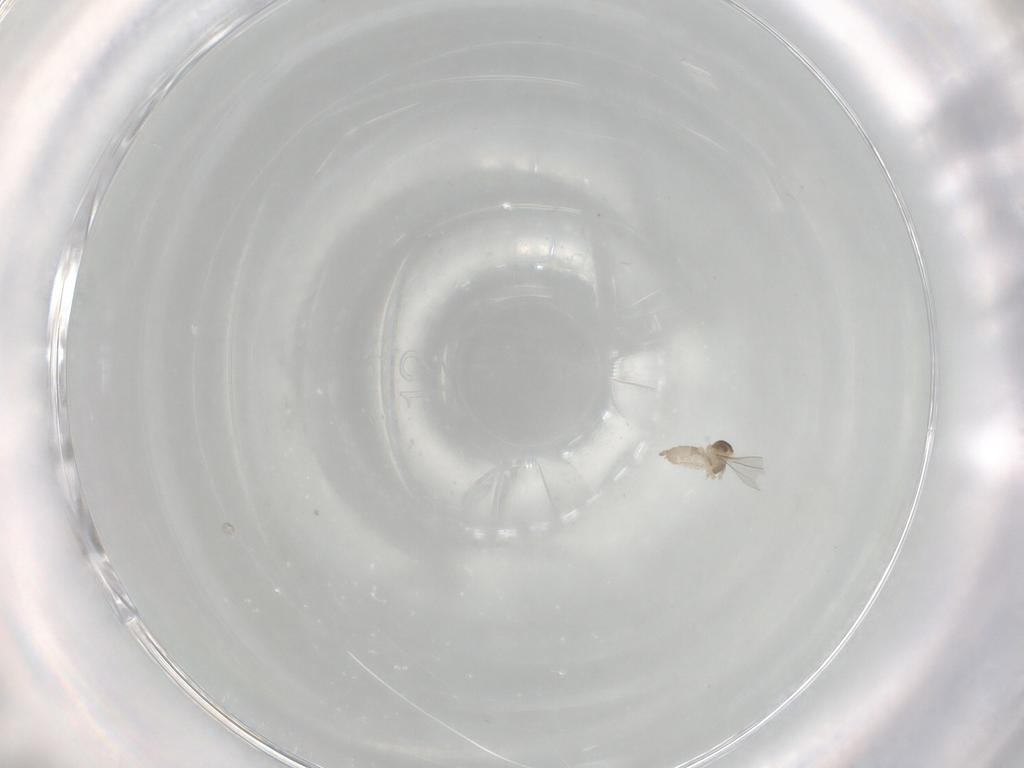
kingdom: Animalia
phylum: Arthropoda
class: Insecta
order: Diptera
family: Cecidomyiidae
